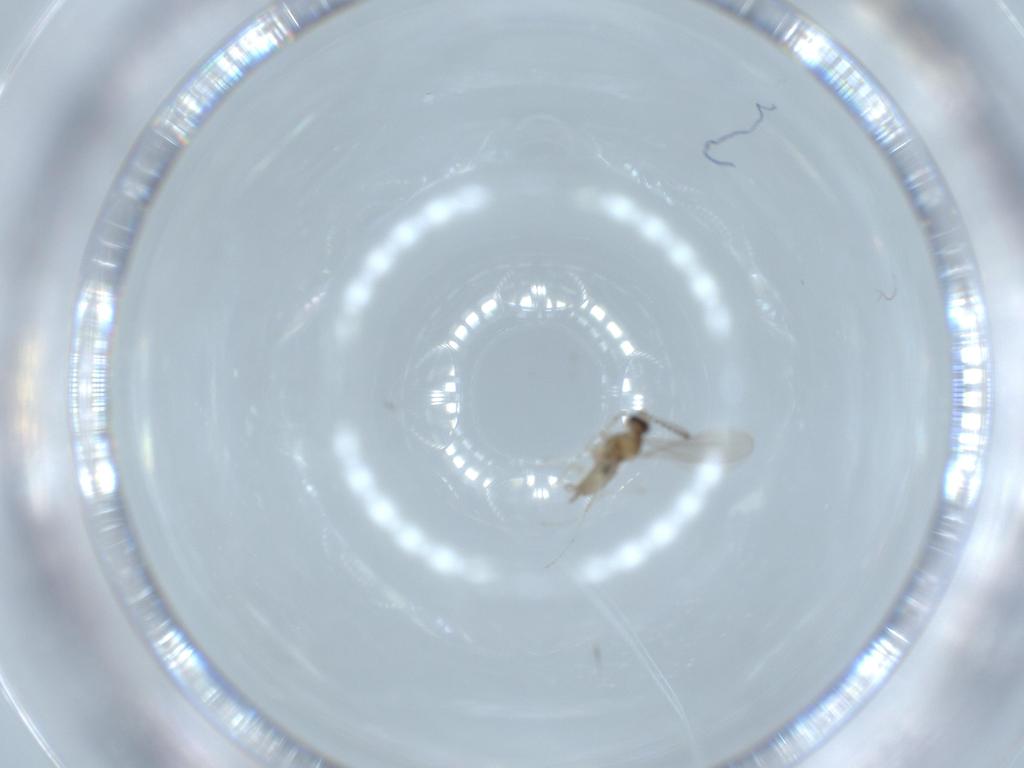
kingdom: Animalia
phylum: Arthropoda
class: Insecta
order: Diptera
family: Cecidomyiidae
